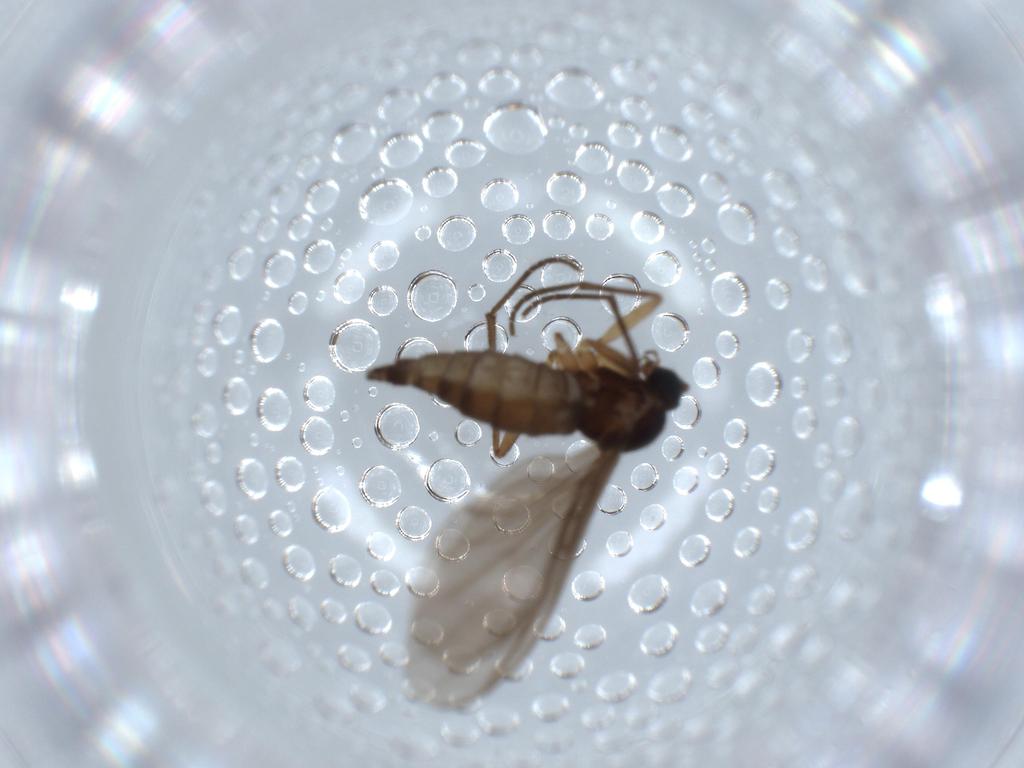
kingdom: Animalia
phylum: Arthropoda
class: Insecta
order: Diptera
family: Sciaridae
